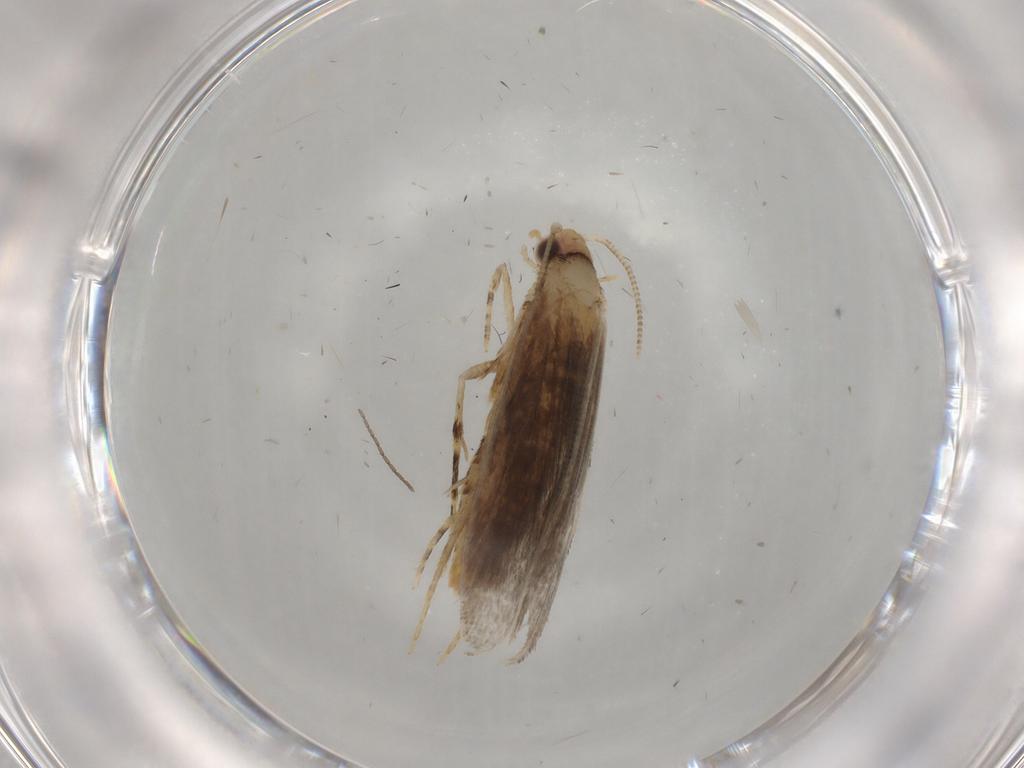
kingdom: Animalia
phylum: Arthropoda
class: Insecta
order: Lepidoptera
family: Tineidae
